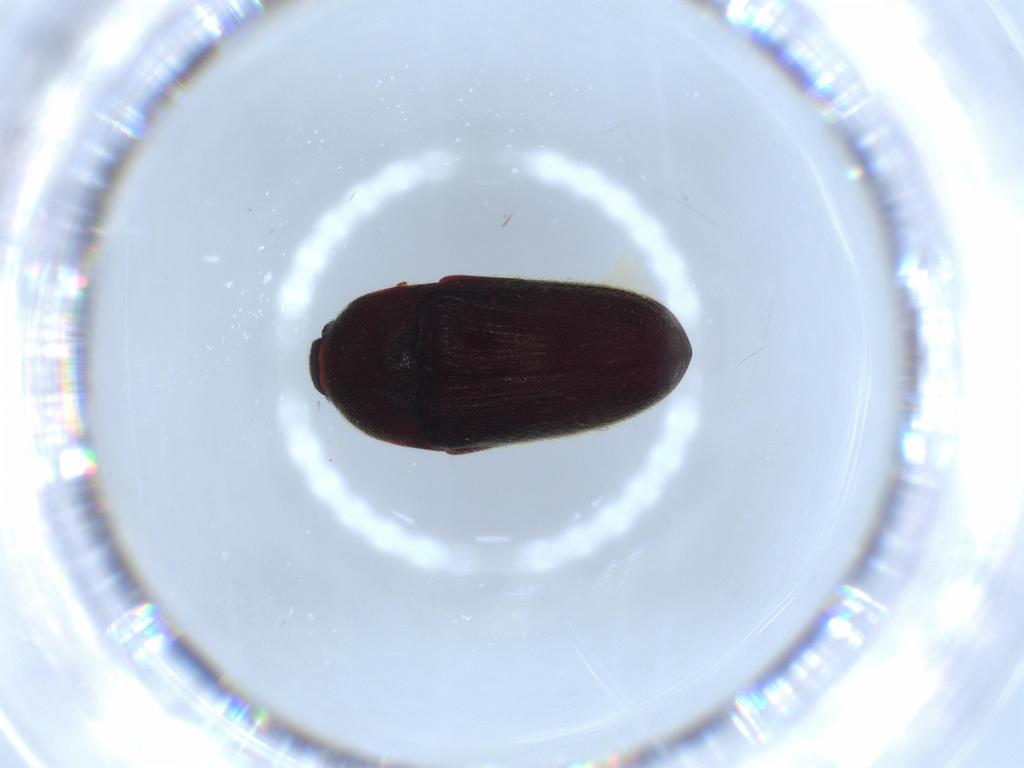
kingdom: Animalia
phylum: Arthropoda
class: Insecta
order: Coleoptera
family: Throscidae
